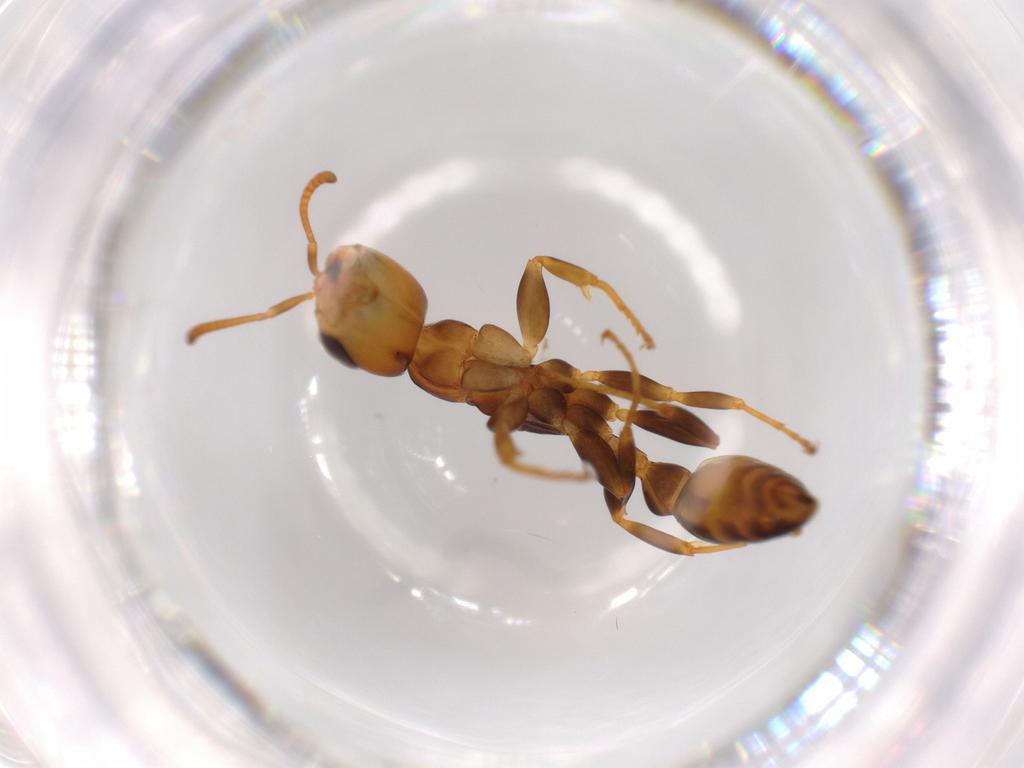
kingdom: Animalia
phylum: Arthropoda
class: Insecta
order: Hymenoptera
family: Formicidae
